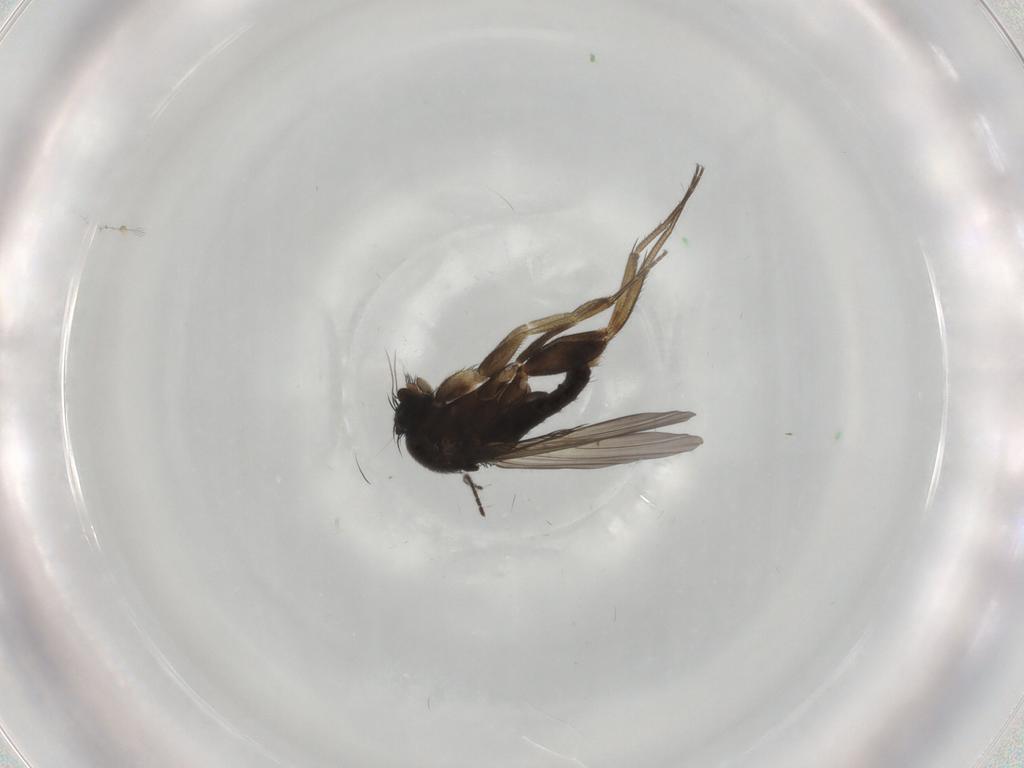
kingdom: Animalia
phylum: Arthropoda
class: Insecta
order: Diptera
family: Phoridae
